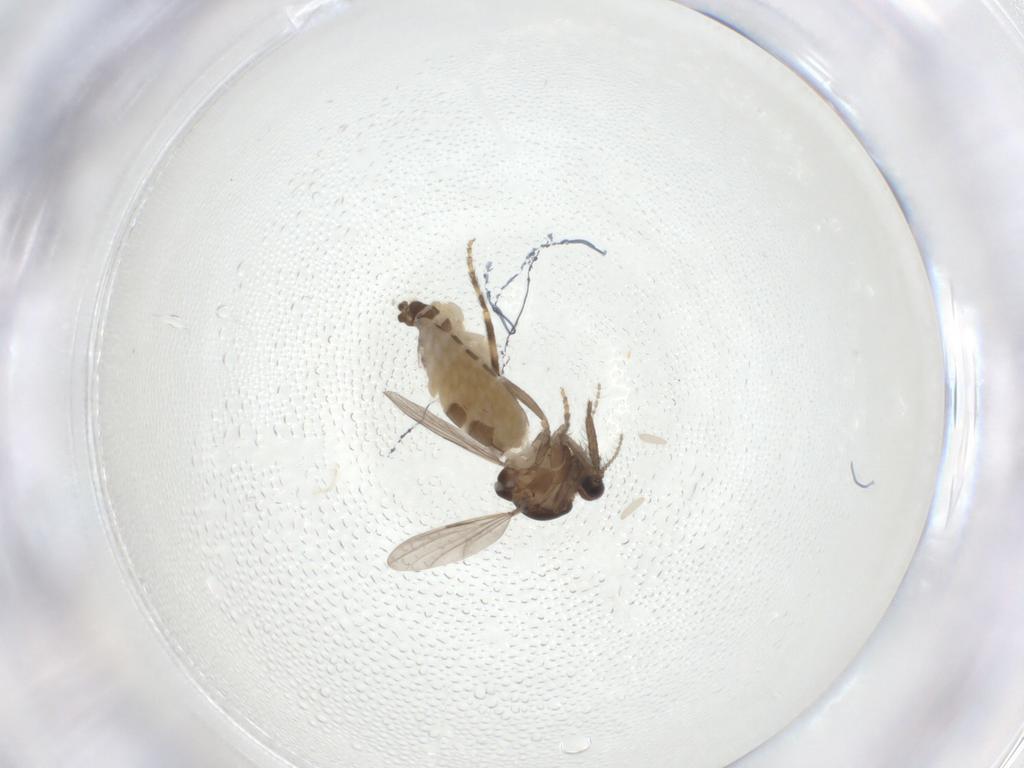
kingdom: Animalia
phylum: Arthropoda
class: Insecta
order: Diptera
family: Ceratopogonidae
